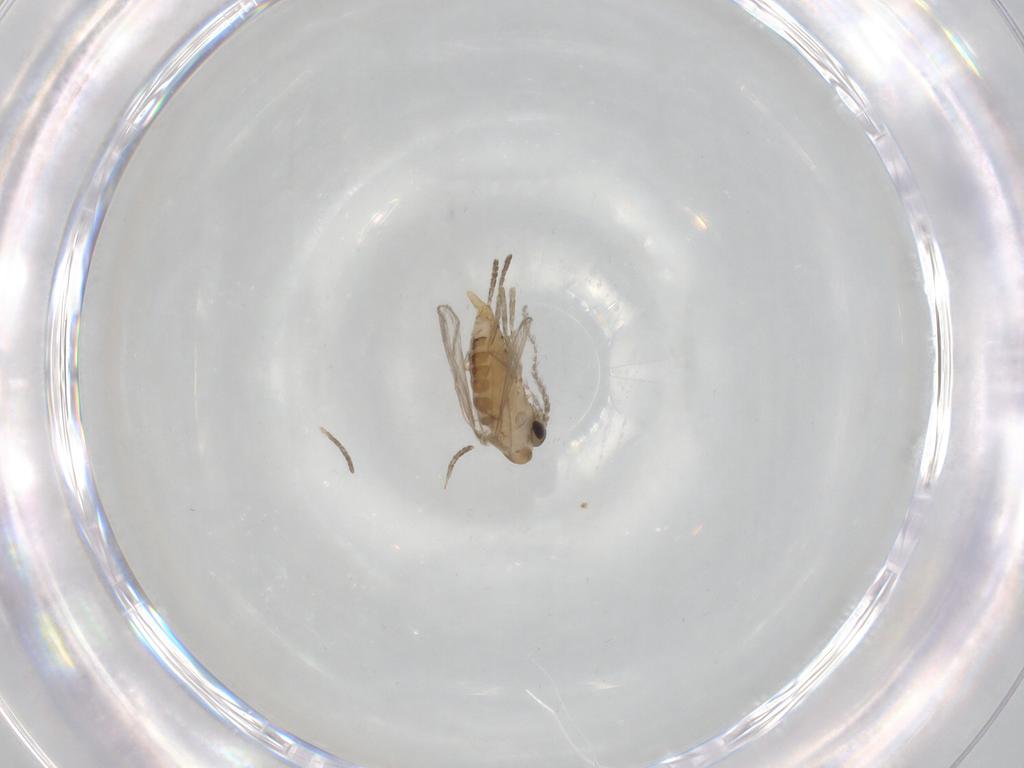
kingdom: Animalia
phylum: Arthropoda
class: Insecta
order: Diptera
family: Psychodidae
